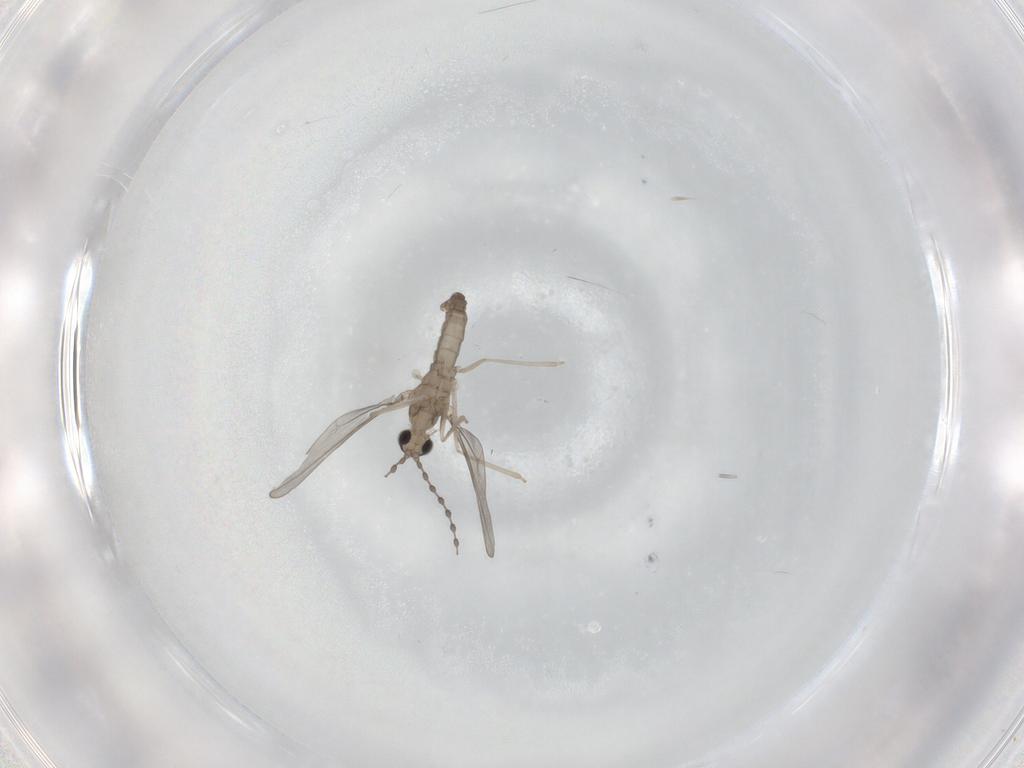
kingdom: Animalia
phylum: Arthropoda
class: Insecta
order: Diptera
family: Cecidomyiidae
